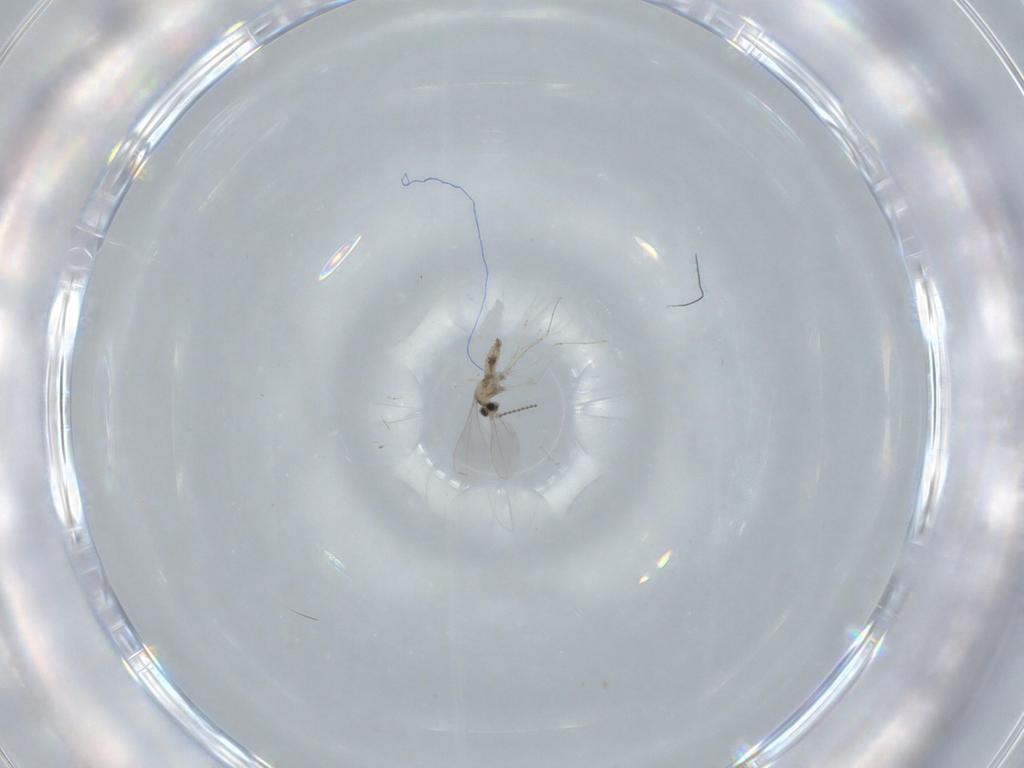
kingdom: Animalia
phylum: Arthropoda
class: Insecta
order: Diptera
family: Cecidomyiidae
